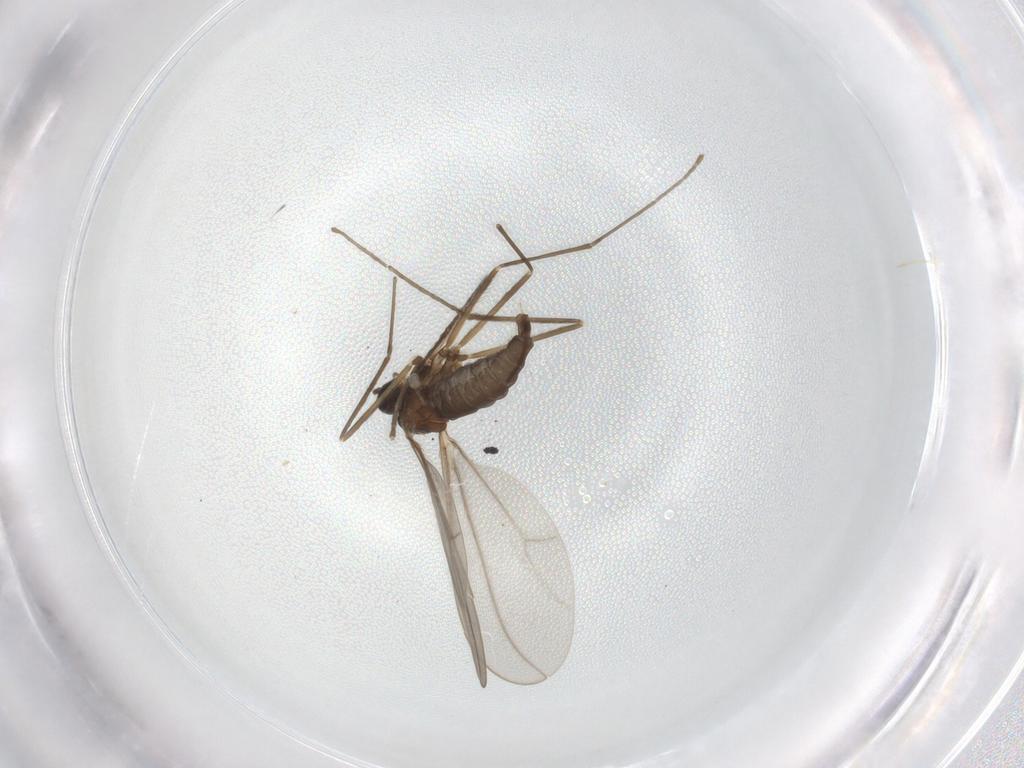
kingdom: Animalia
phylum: Arthropoda
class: Insecta
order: Diptera
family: Cecidomyiidae
